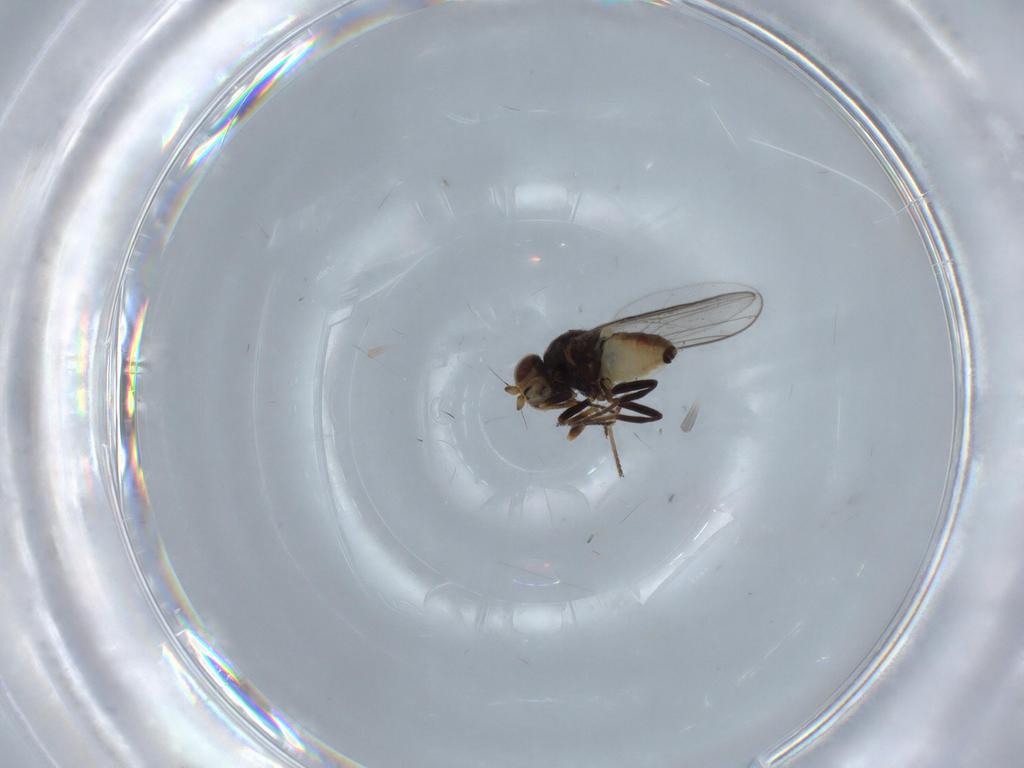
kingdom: Animalia
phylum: Arthropoda
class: Insecta
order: Diptera
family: Chloropidae
